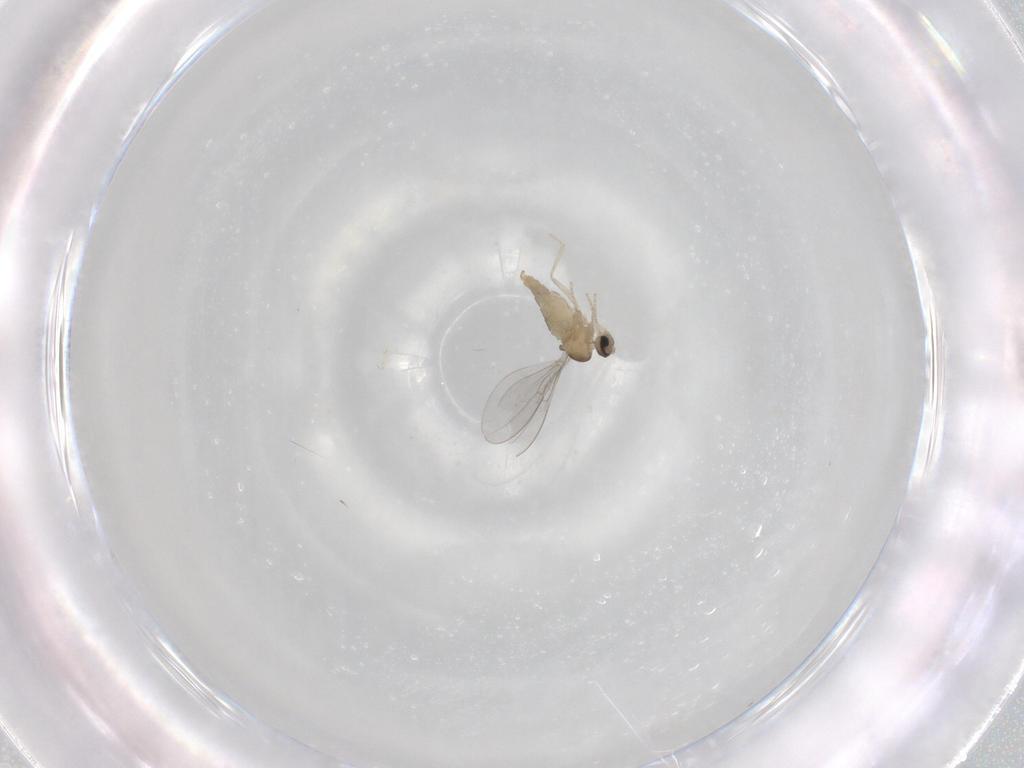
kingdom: Animalia
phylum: Arthropoda
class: Insecta
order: Diptera
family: Cecidomyiidae
